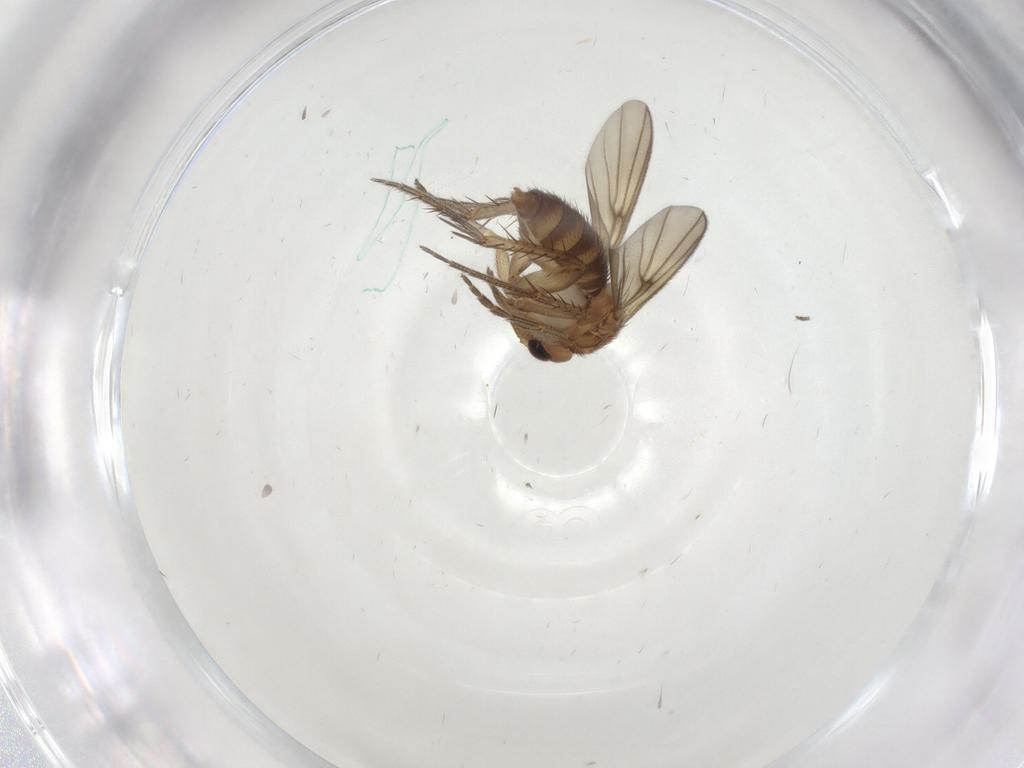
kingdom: Animalia
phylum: Arthropoda
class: Insecta
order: Diptera
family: Mycetophilidae
